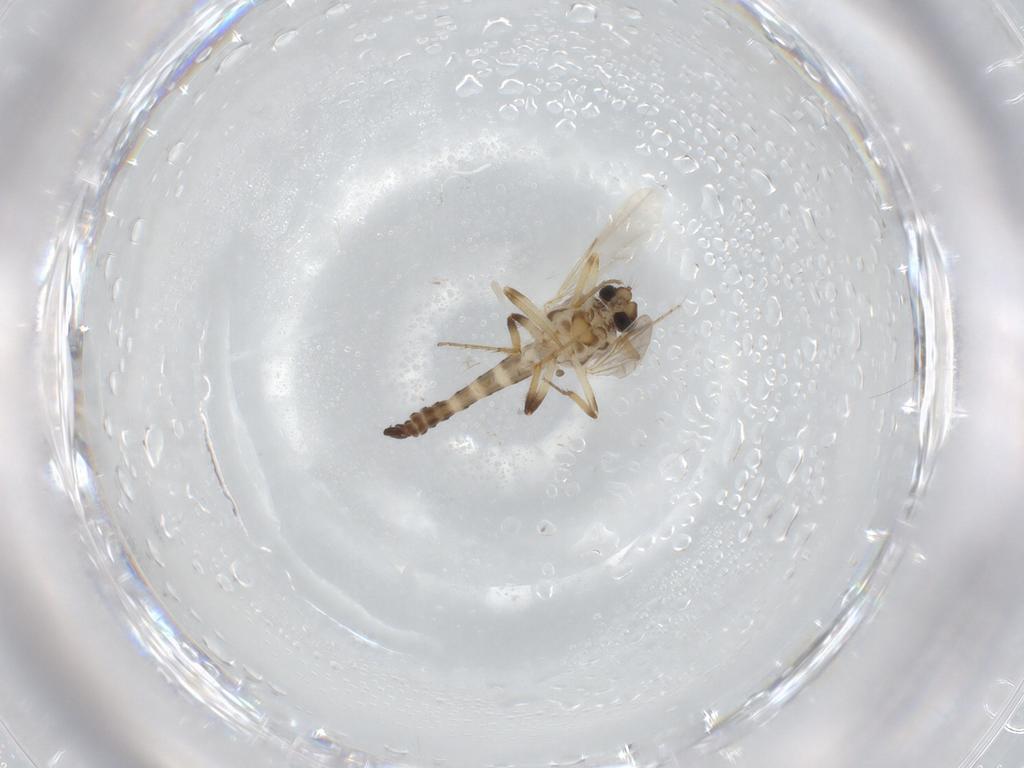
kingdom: Animalia
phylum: Arthropoda
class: Insecta
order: Diptera
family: Ceratopogonidae
